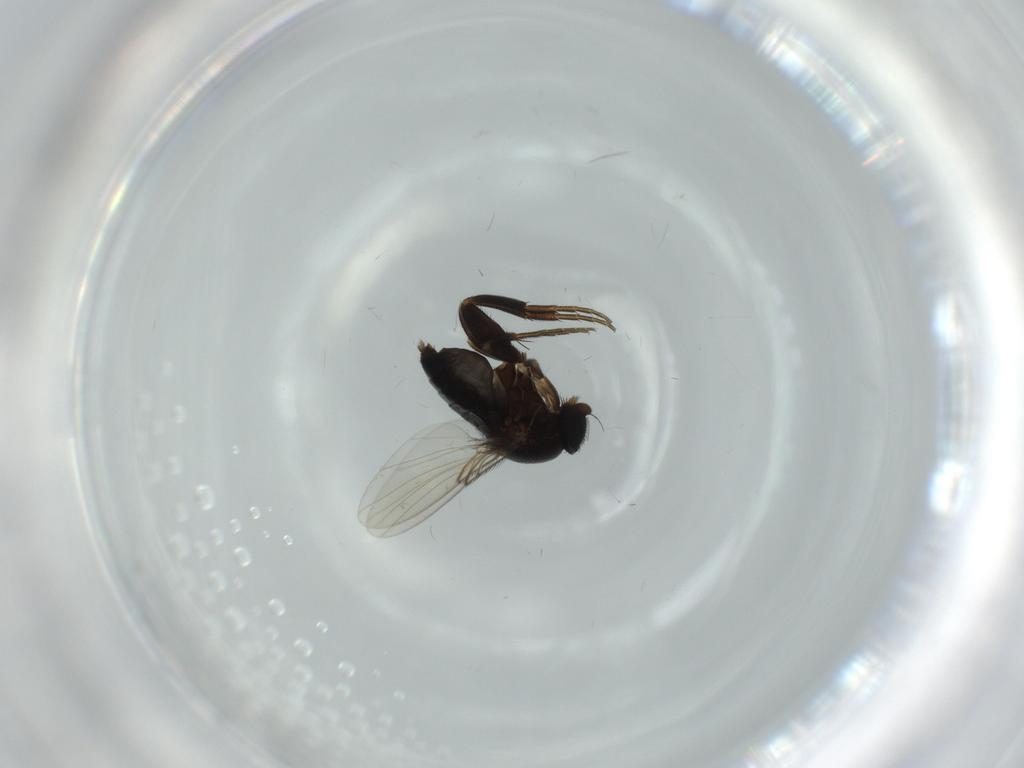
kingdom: Animalia
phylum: Arthropoda
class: Insecta
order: Diptera
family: Phoridae
